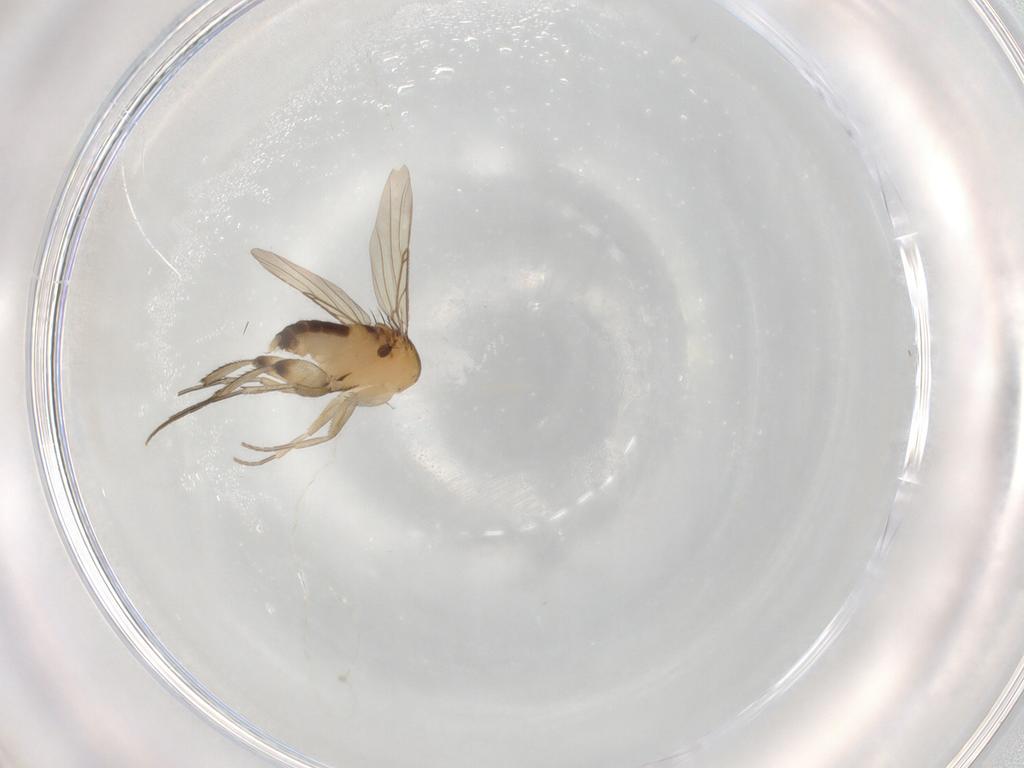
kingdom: Animalia
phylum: Arthropoda
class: Insecta
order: Diptera
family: Phoridae
